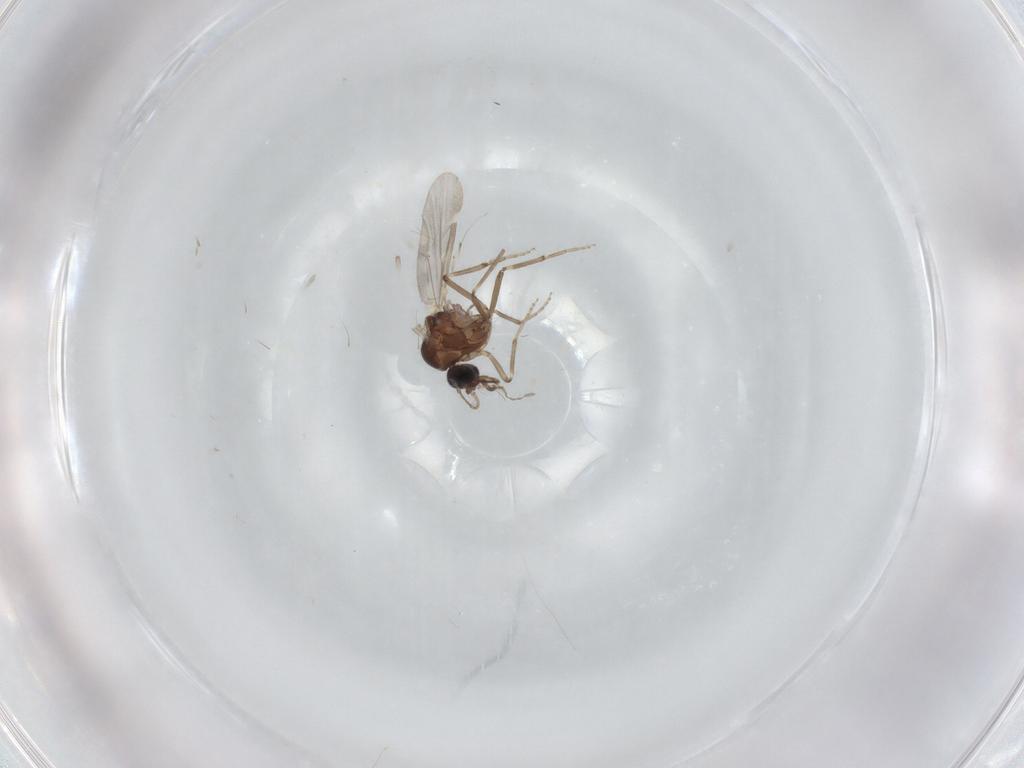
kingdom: Animalia
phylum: Arthropoda
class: Insecta
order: Diptera
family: Ceratopogonidae
